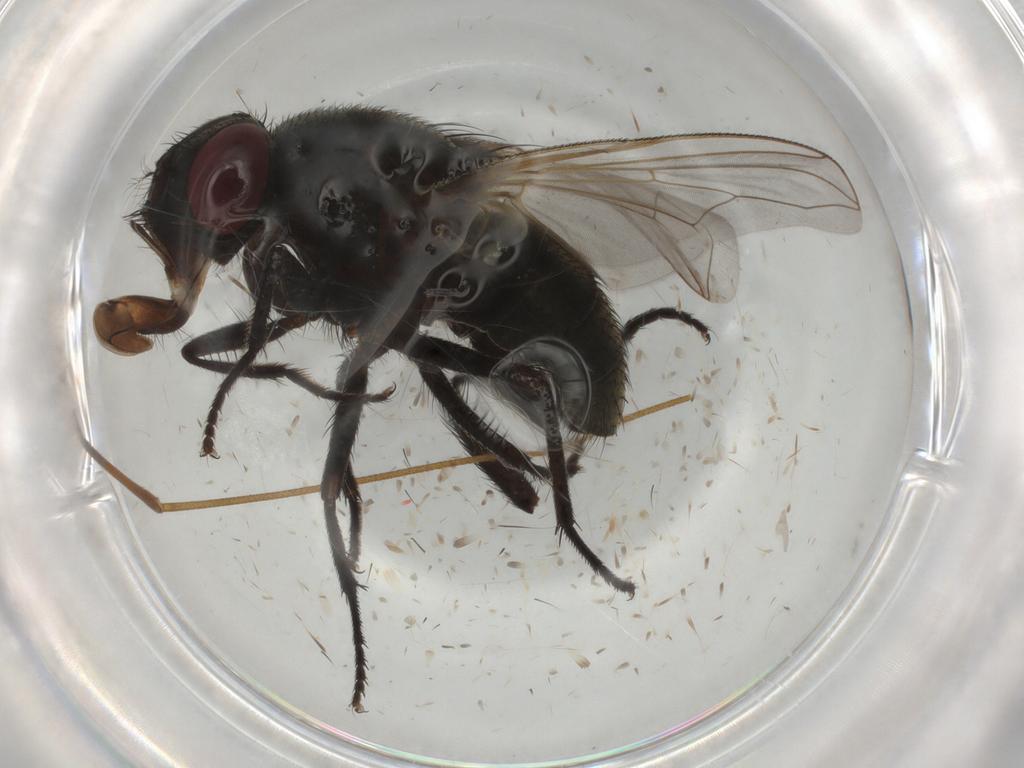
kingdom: Animalia
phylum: Arthropoda
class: Insecta
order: Diptera
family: Muscidae
